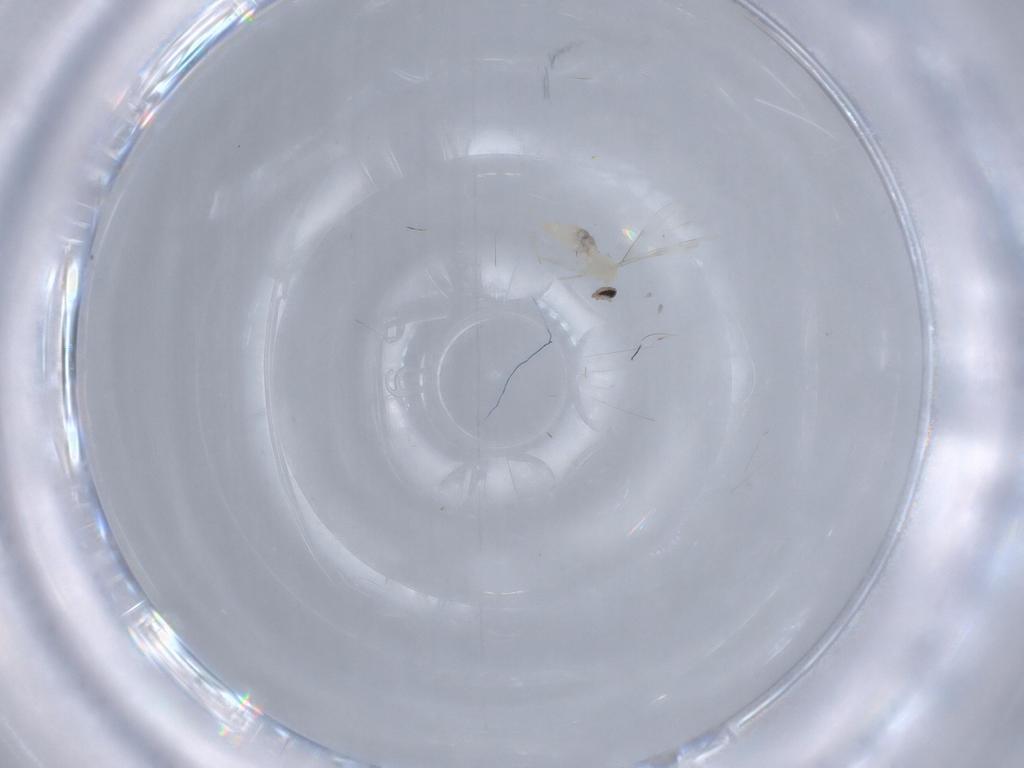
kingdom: Animalia
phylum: Arthropoda
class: Insecta
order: Diptera
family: Cecidomyiidae
